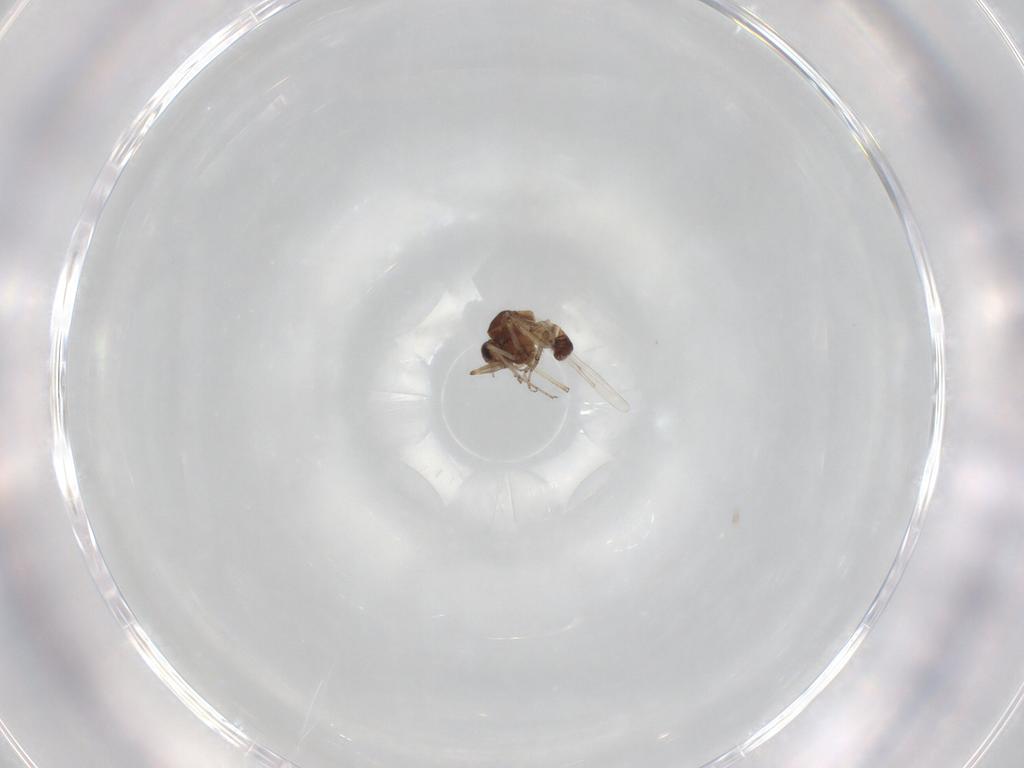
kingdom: Animalia
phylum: Arthropoda
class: Insecta
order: Diptera
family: Ceratopogonidae
